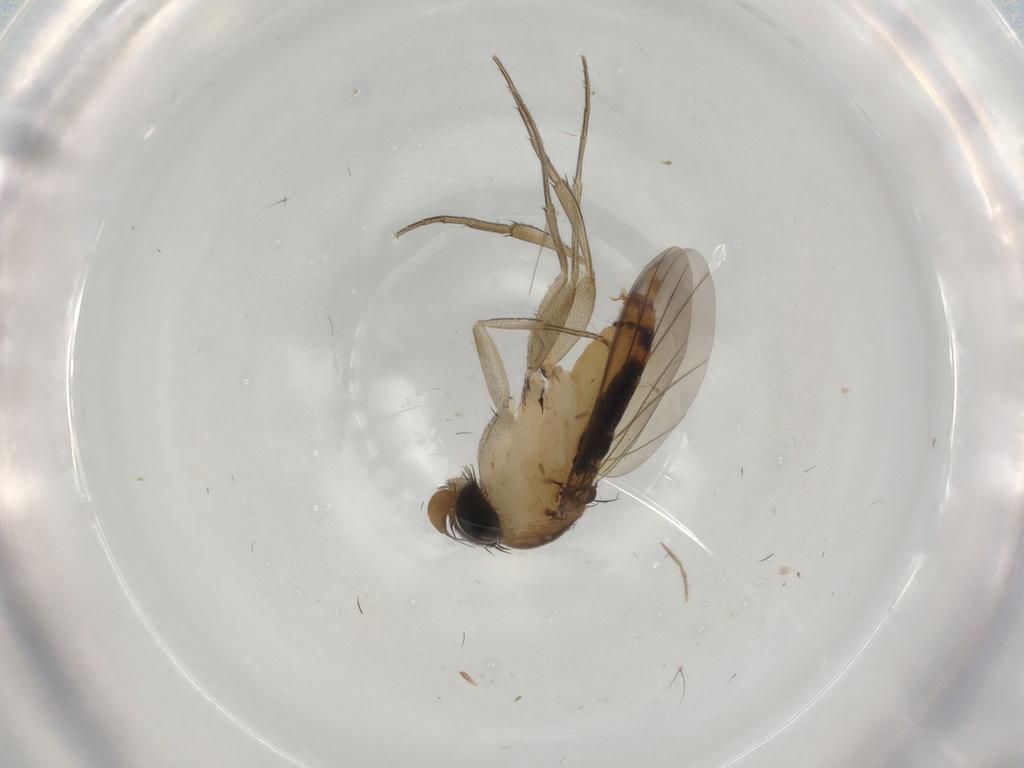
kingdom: Animalia
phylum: Arthropoda
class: Insecta
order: Diptera
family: Phoridae
